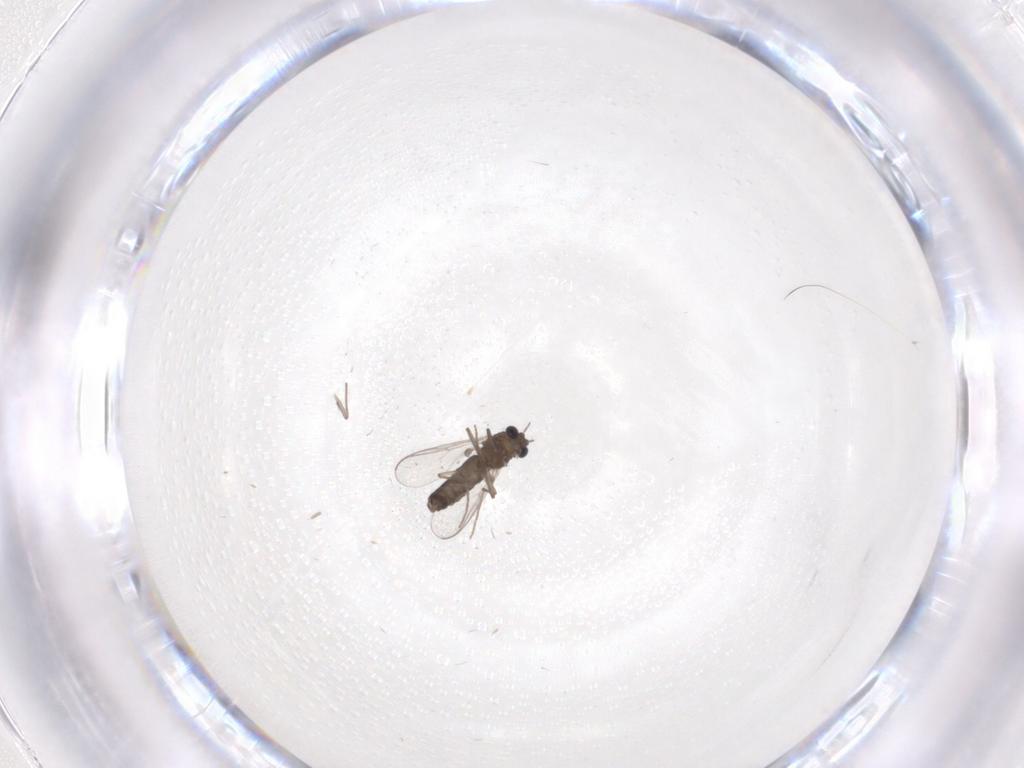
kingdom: Animalia
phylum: Arthropoda
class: Insecta
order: Diptera
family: Chironomidae
